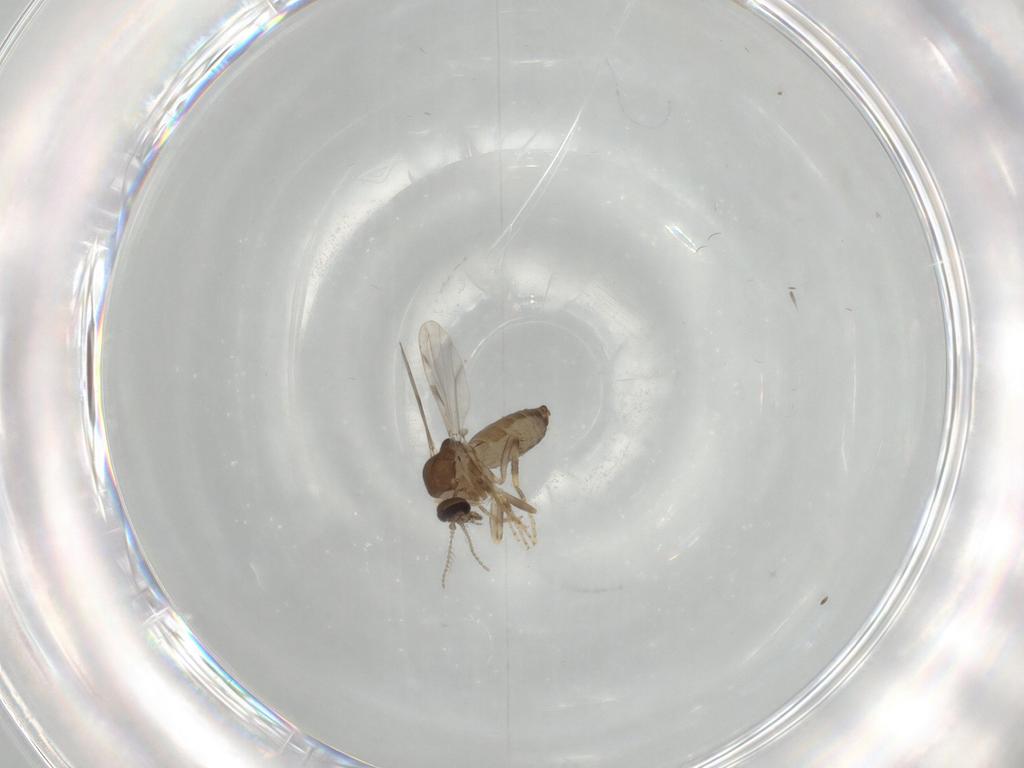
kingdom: Animalia
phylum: Arthropoda
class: Insecta
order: Diptera
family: Ceratopogonidae
